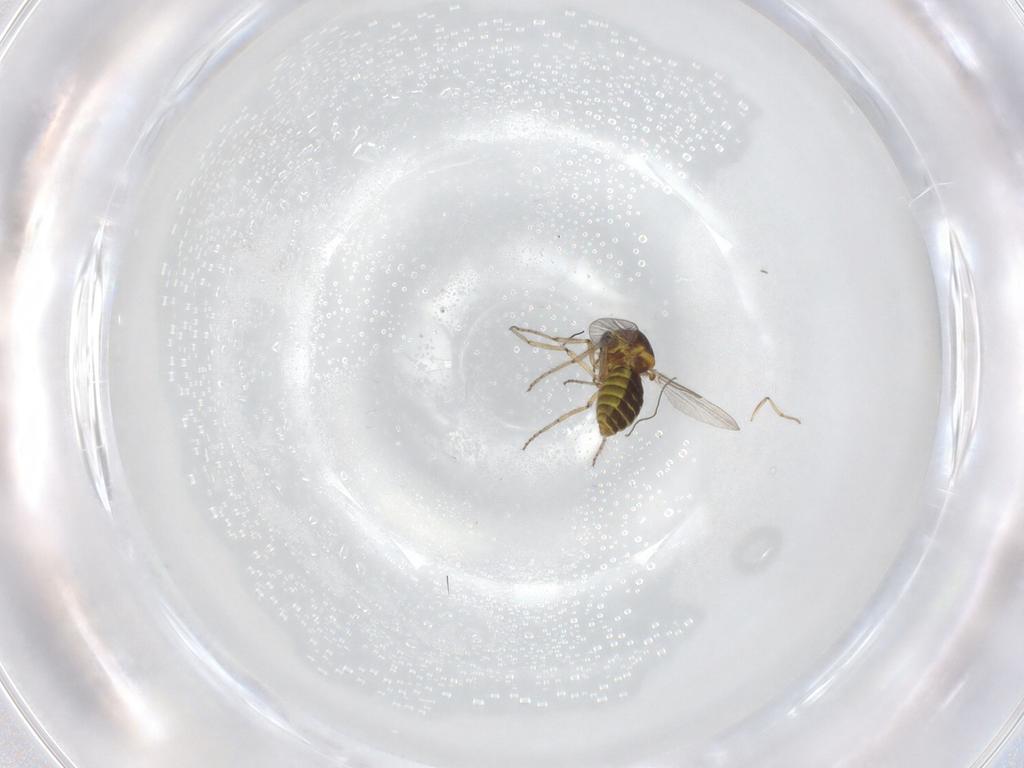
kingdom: Animalia
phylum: Arthropoda
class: Insecta
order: Diptera
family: Ceratopogonidae
